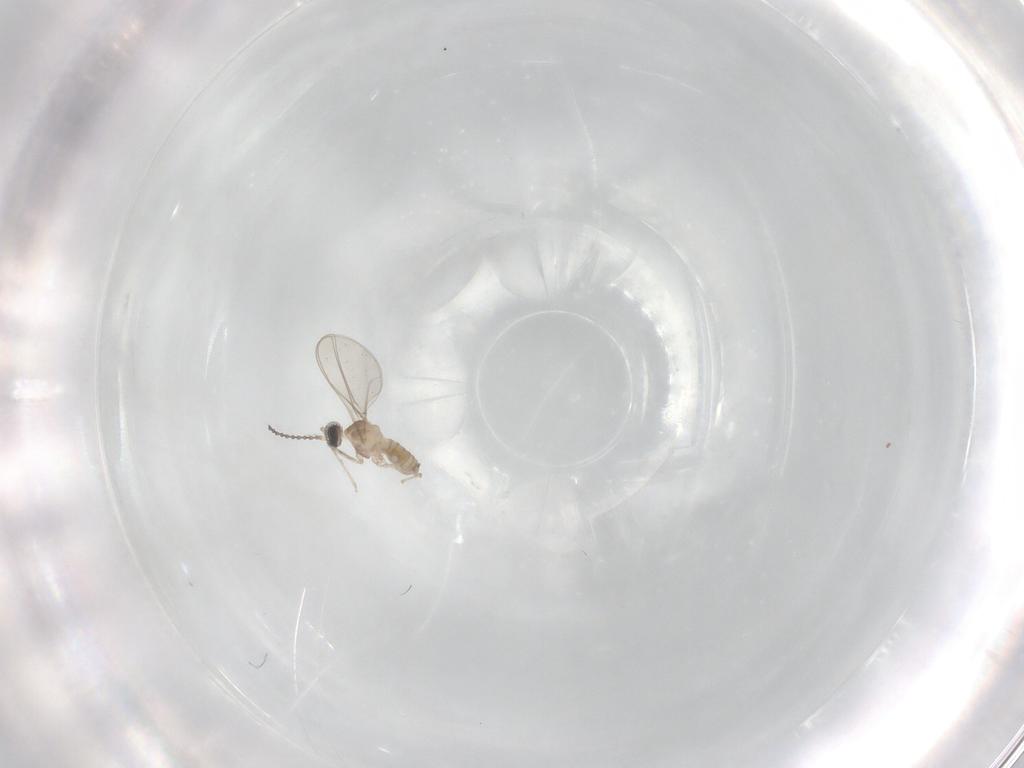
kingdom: Animalia
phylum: Arthropoda
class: Insecta
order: Diptera
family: Cecidomyiidae
